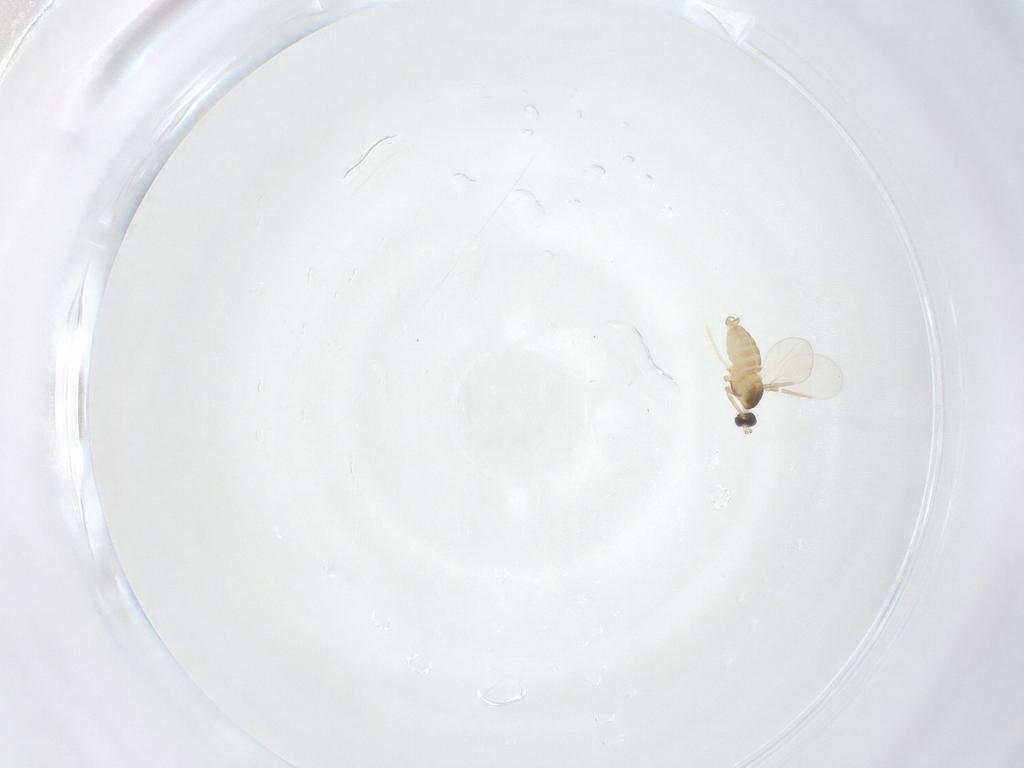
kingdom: Animalia
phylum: Arthropoda
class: Insecta
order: Diptera
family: Cecidomyiidae
